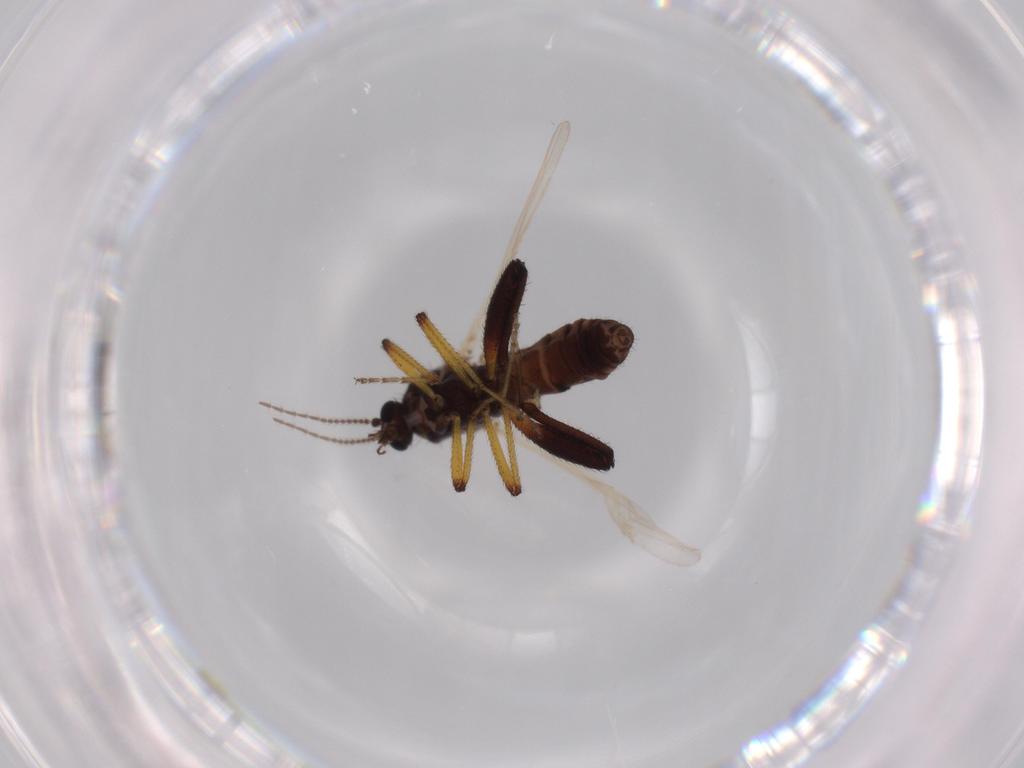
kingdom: Animalia
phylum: Arthropoda
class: Insecta
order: Diptera
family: Ceratopogonidae
